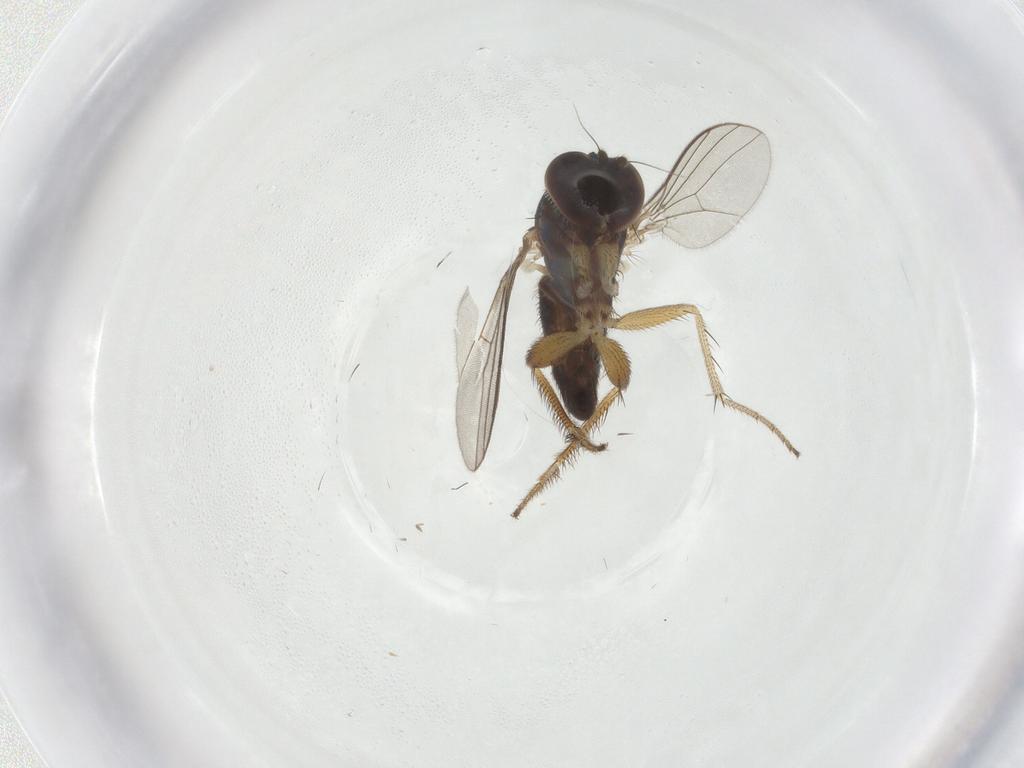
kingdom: Animalia
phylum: Arthropoda
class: Insecta
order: Diptera
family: Dolichopodidae
